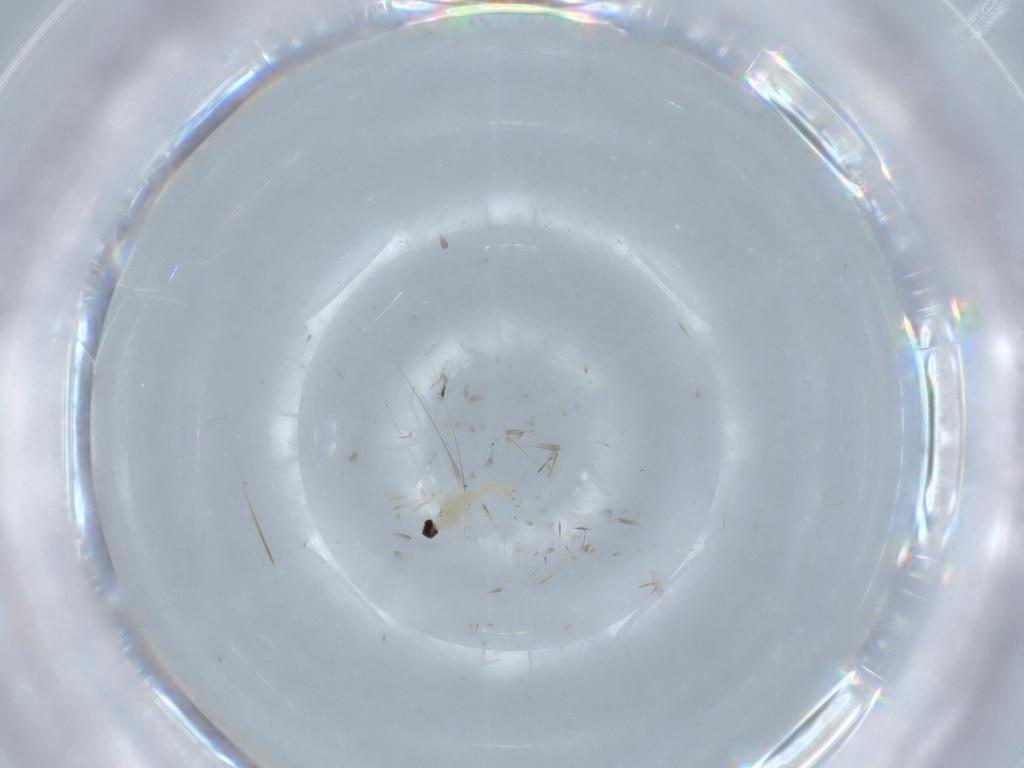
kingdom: Animalia
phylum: Arthropoda
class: Insecta
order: Diptera
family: Cecidomyiidae
